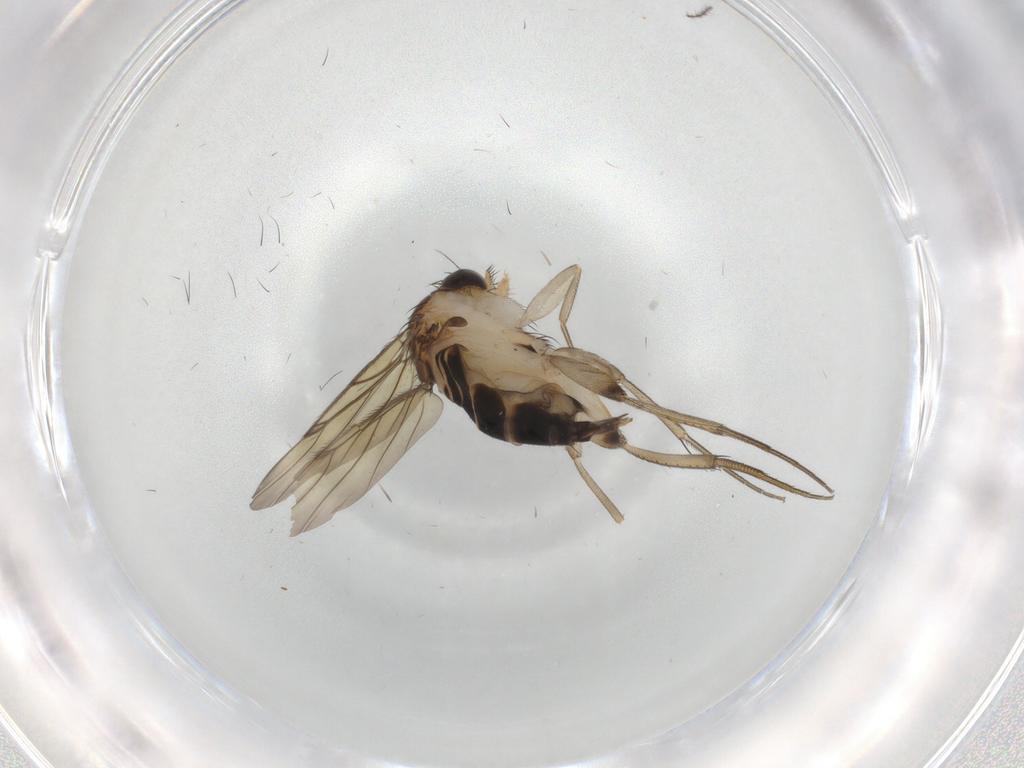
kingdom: Animalia
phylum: Arthropoda
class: Insecta
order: Diptera
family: Phoridae
